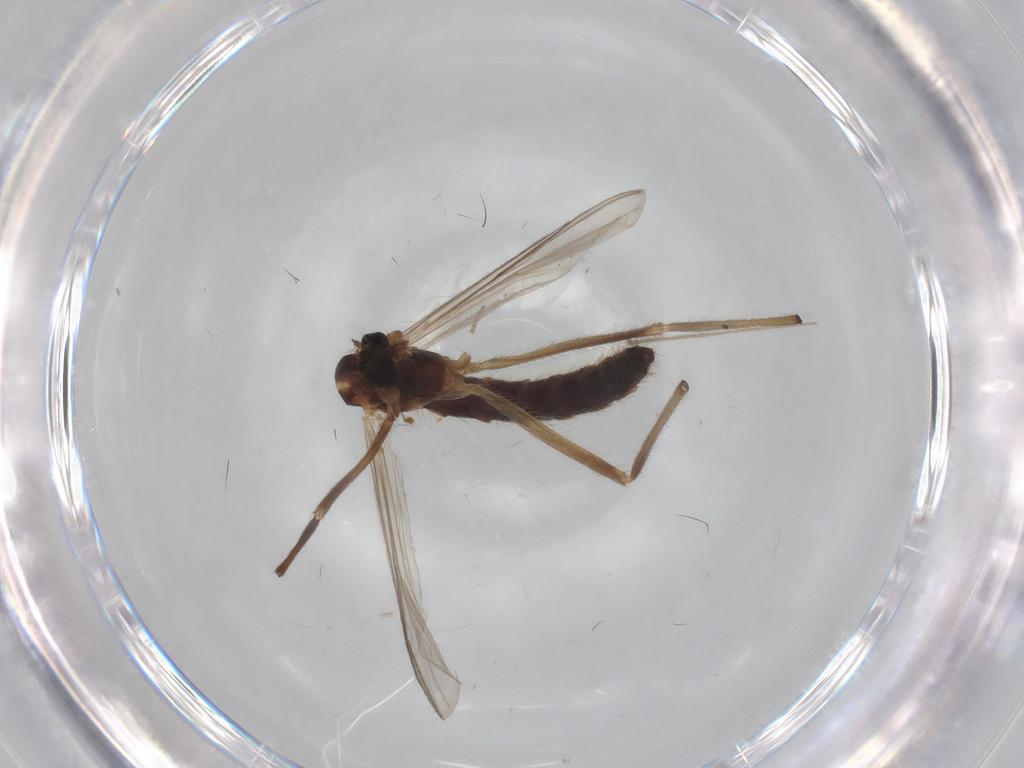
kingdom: Animalia
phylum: Arthropoda
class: Insecta
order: Diptera
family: Chironomidae
